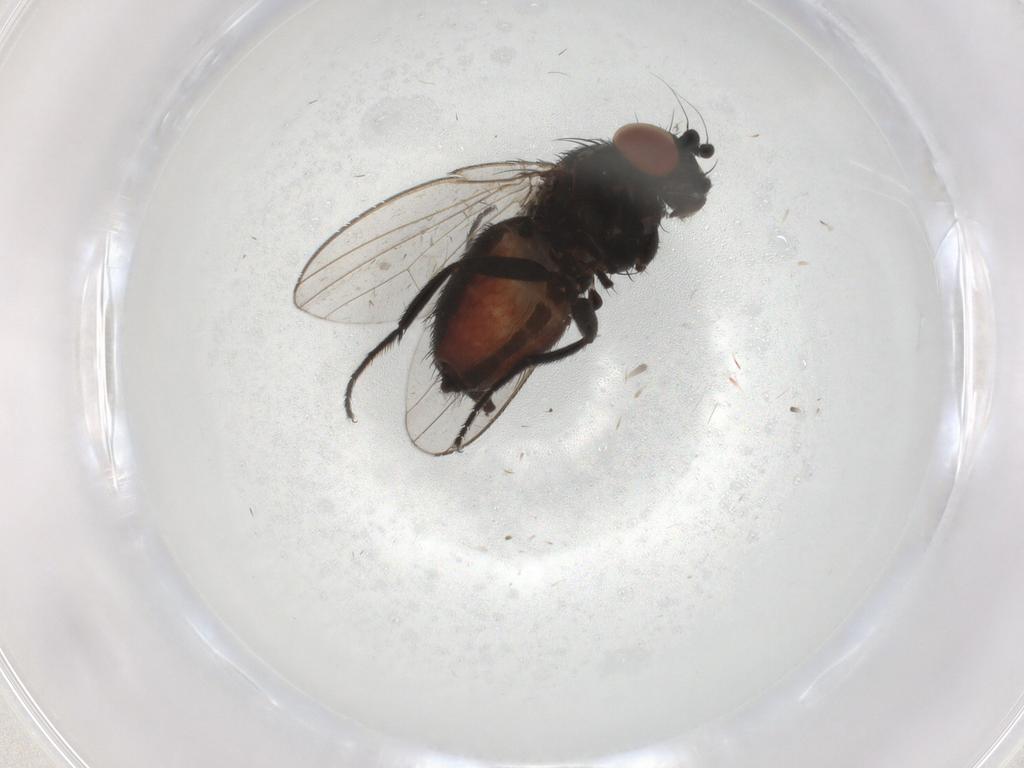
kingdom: Animalia
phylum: Arthropoda
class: Insecta
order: Diptera
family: Milichiidae
